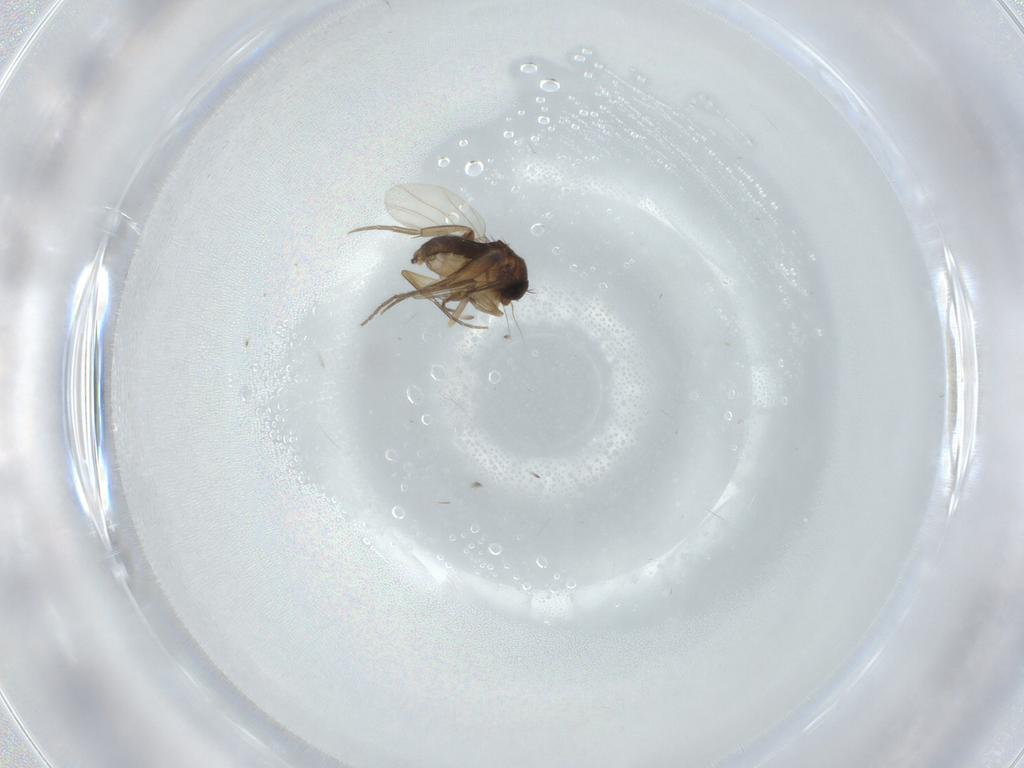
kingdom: Animalia
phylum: Arthropoda
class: Insecta
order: Diptera
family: Phoridae
